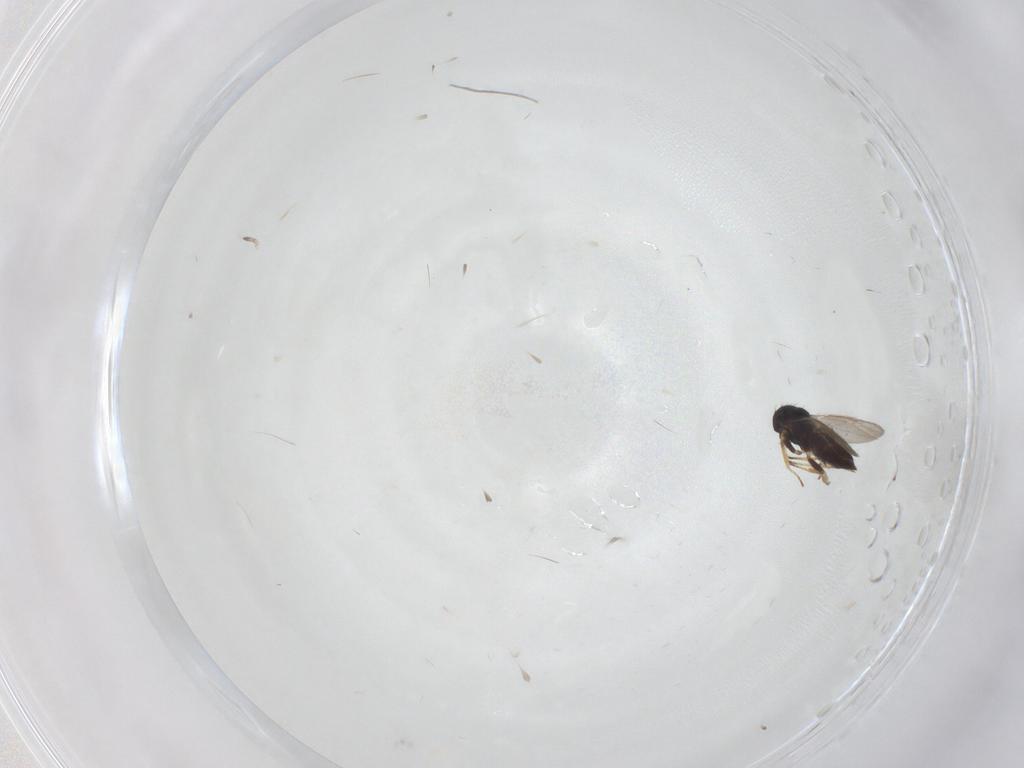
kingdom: Animalia
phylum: Arthropoda
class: Insecta
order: Hymenoptera
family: Eulophidae
